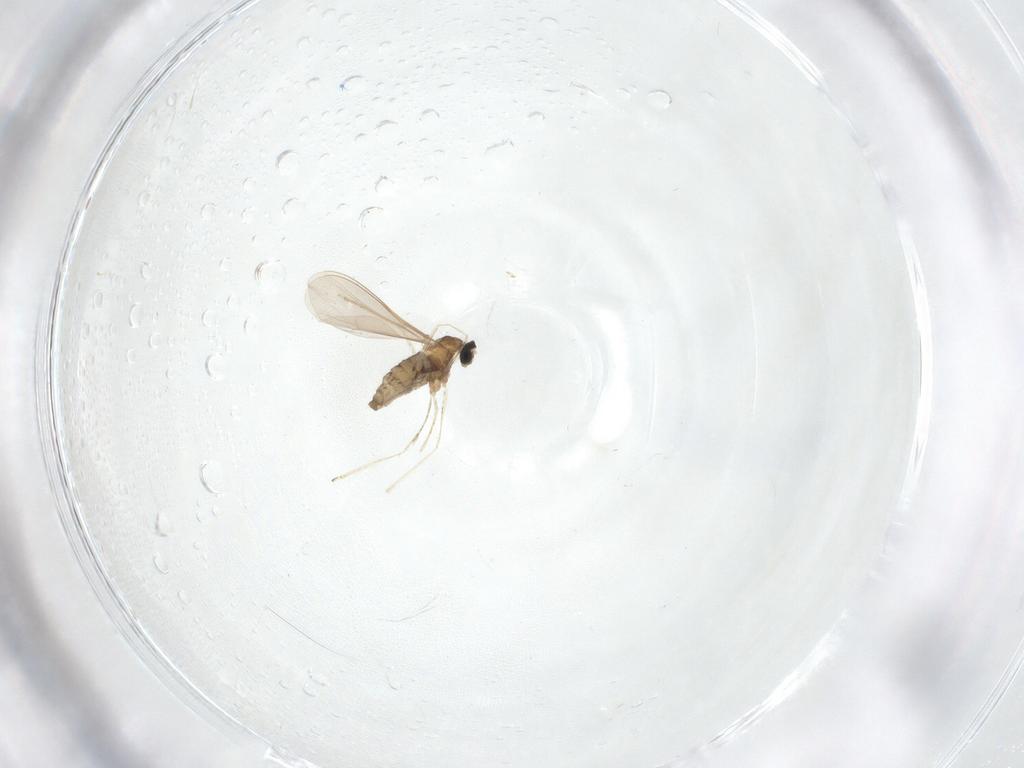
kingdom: Animalia
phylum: Arthropoda
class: Insecta
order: Diptera
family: Cecidomyiidae
